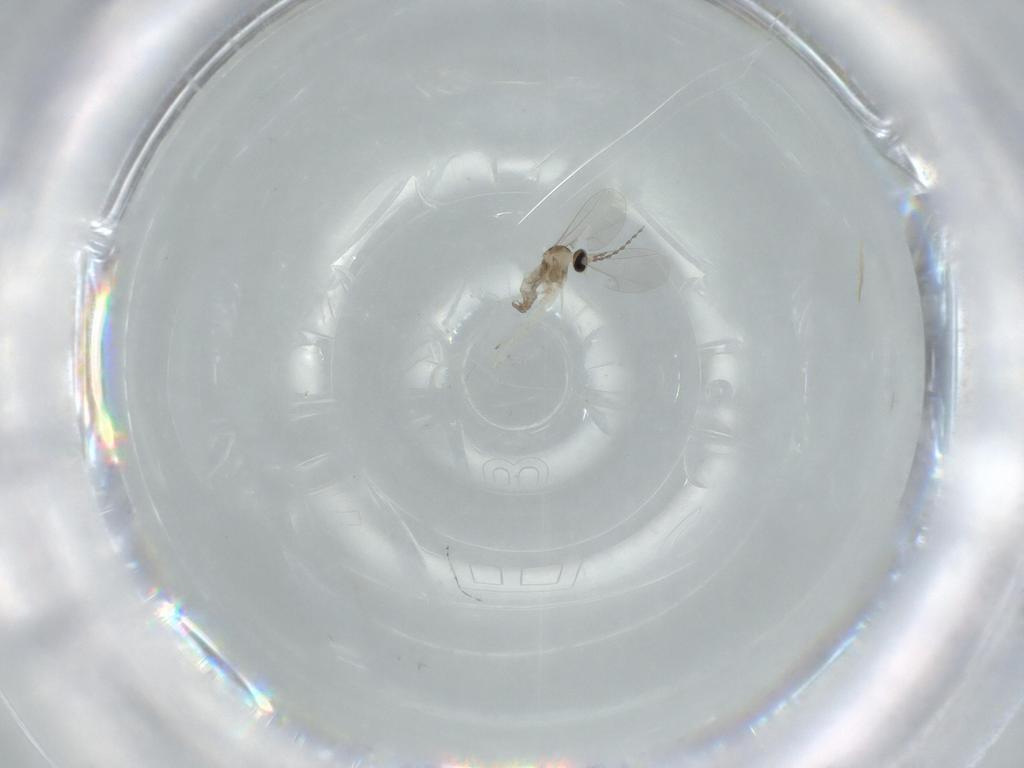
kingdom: Animalia
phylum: Arthropoda
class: Insecta
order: Diptera
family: Cecidomyiidae
